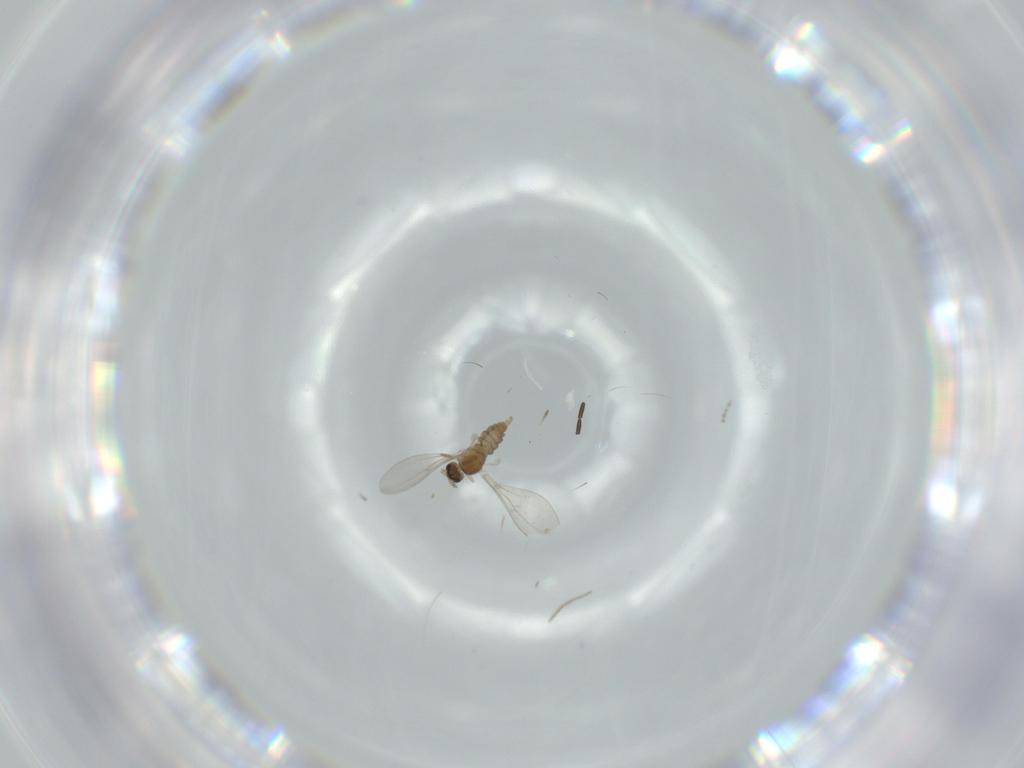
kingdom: Animalia
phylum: Arthropoda
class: Insecta
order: Diptera
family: Cecidomyiidae
